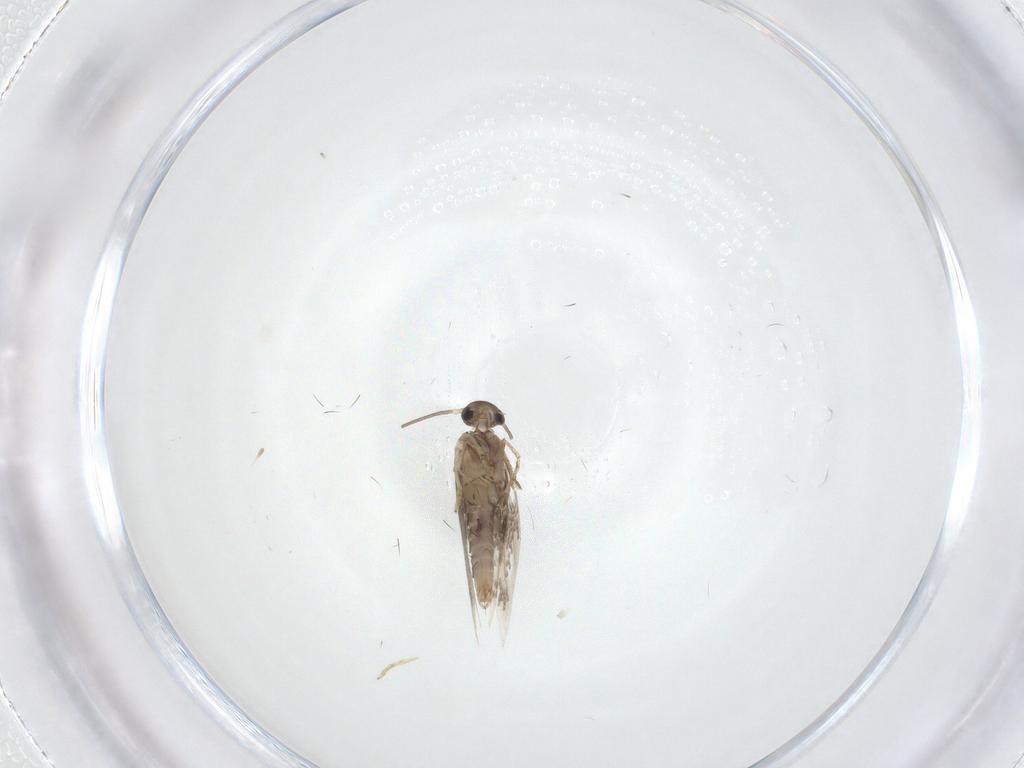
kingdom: Animalia
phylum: Arthropoda
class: Insecta
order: Lepidoptera
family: Heliozelidae
